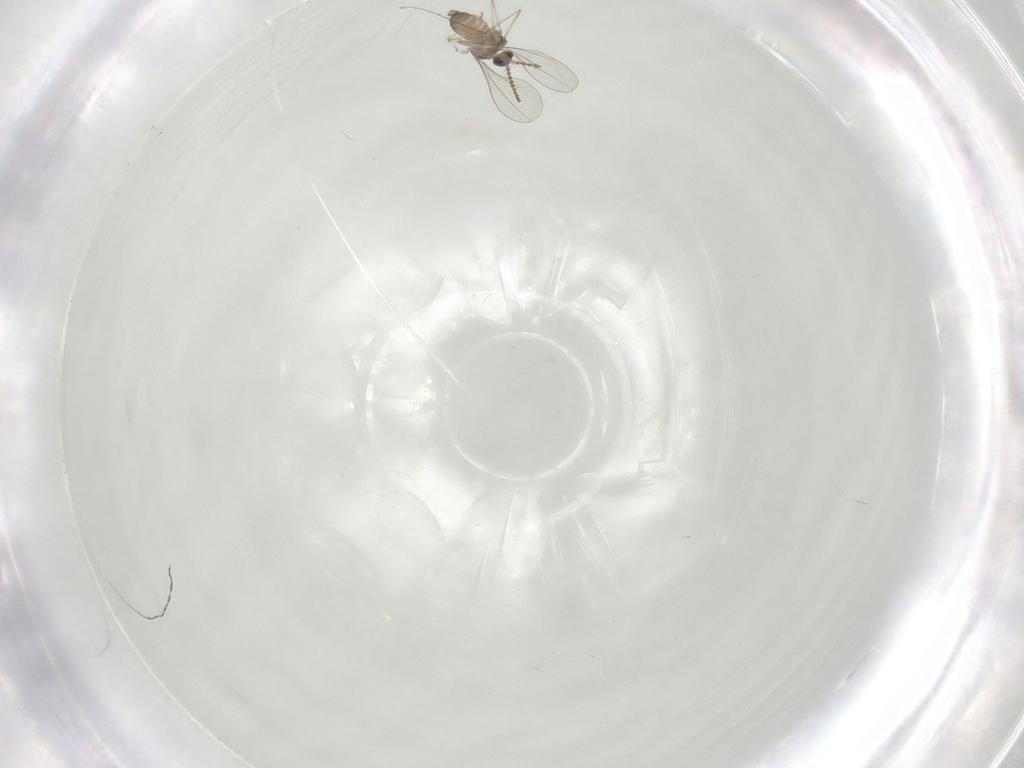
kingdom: Animalia
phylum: Arthropoda
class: Insecta
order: Diptera
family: Cecidomyiidae
